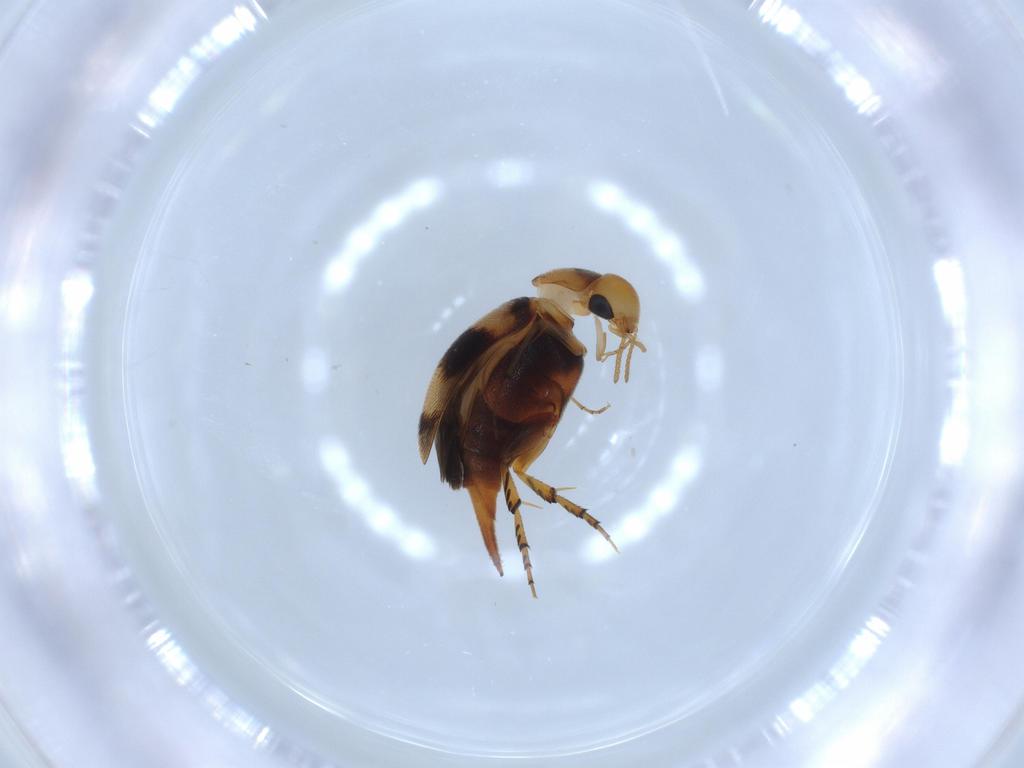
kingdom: Animalia
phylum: Arthropoda
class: Insecta
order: Coleoptera
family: Mordellidae
